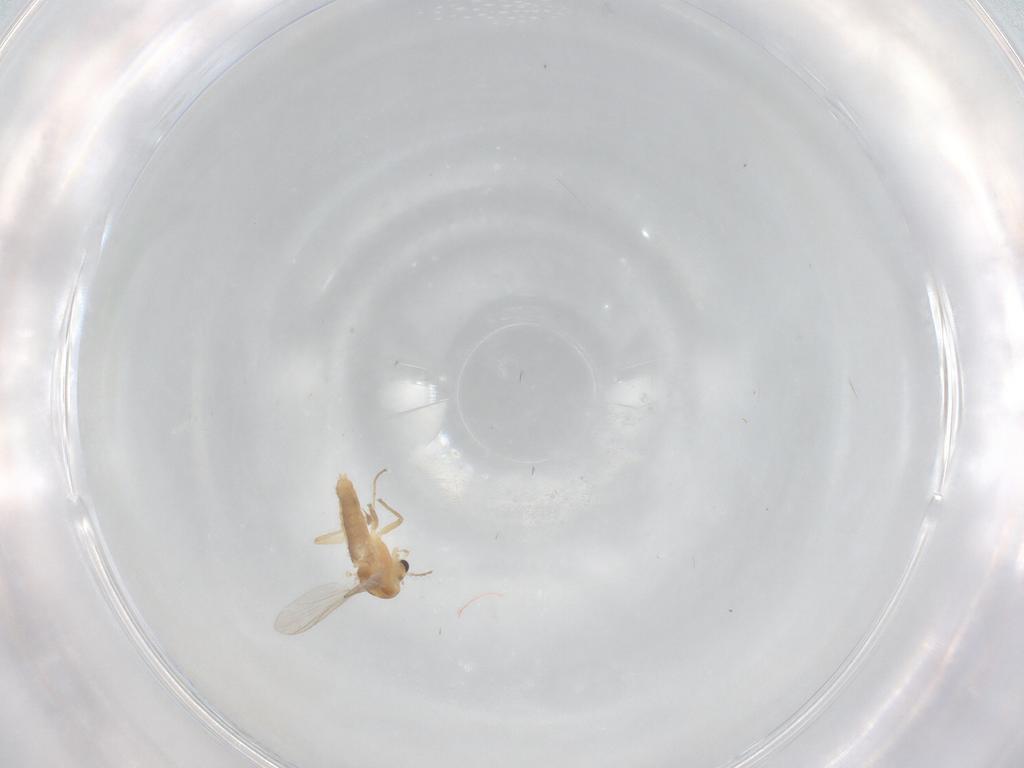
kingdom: Animalia
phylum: Arthropoda
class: Insecta
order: Diptera
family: Chironomidae
